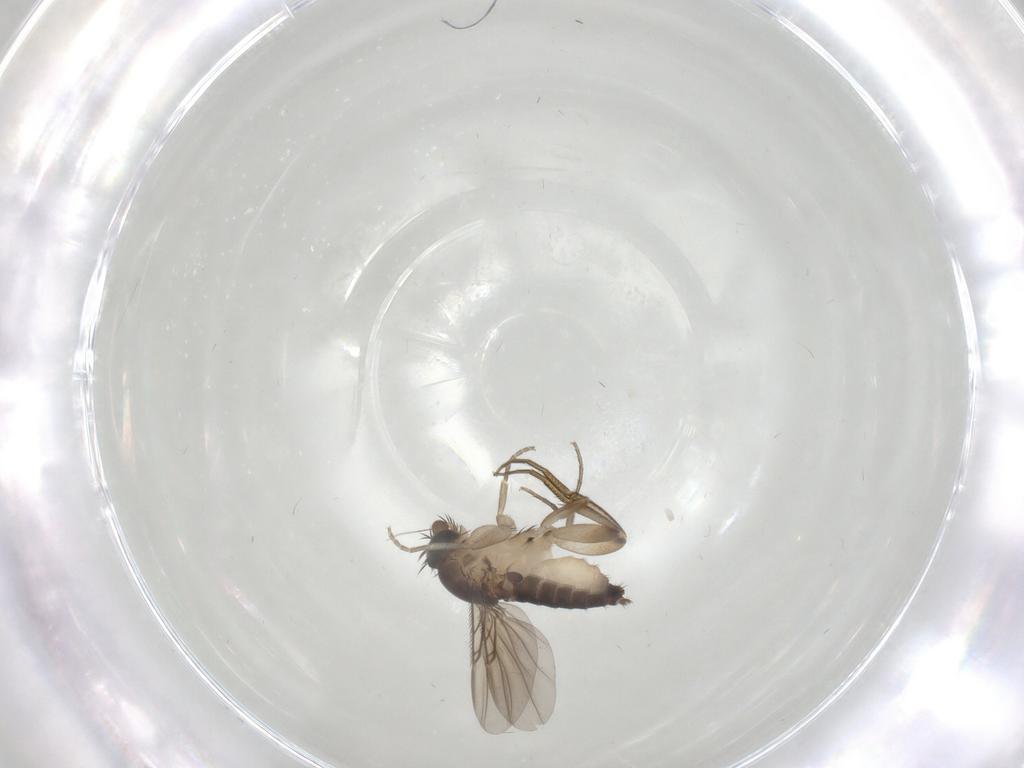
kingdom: Animalia
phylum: Arthropoda
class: Insecta
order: Diptera
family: Phoridae
